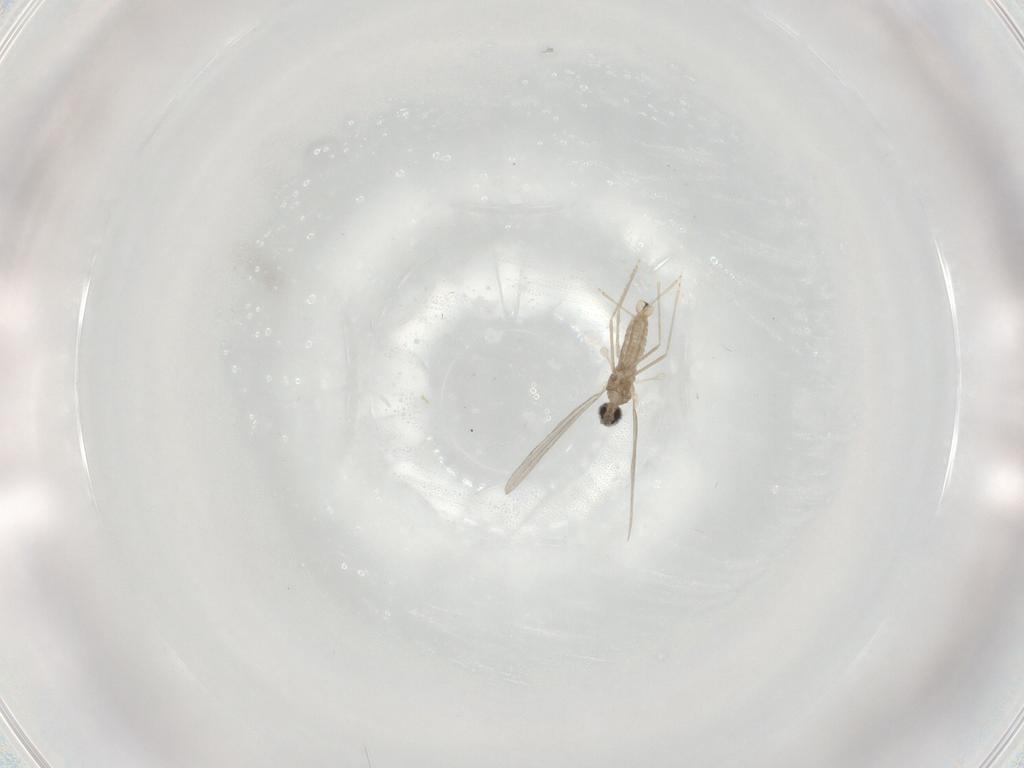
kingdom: Animalia
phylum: Arthropoda
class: Insecta
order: Diptera
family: Cecidomyiidae
